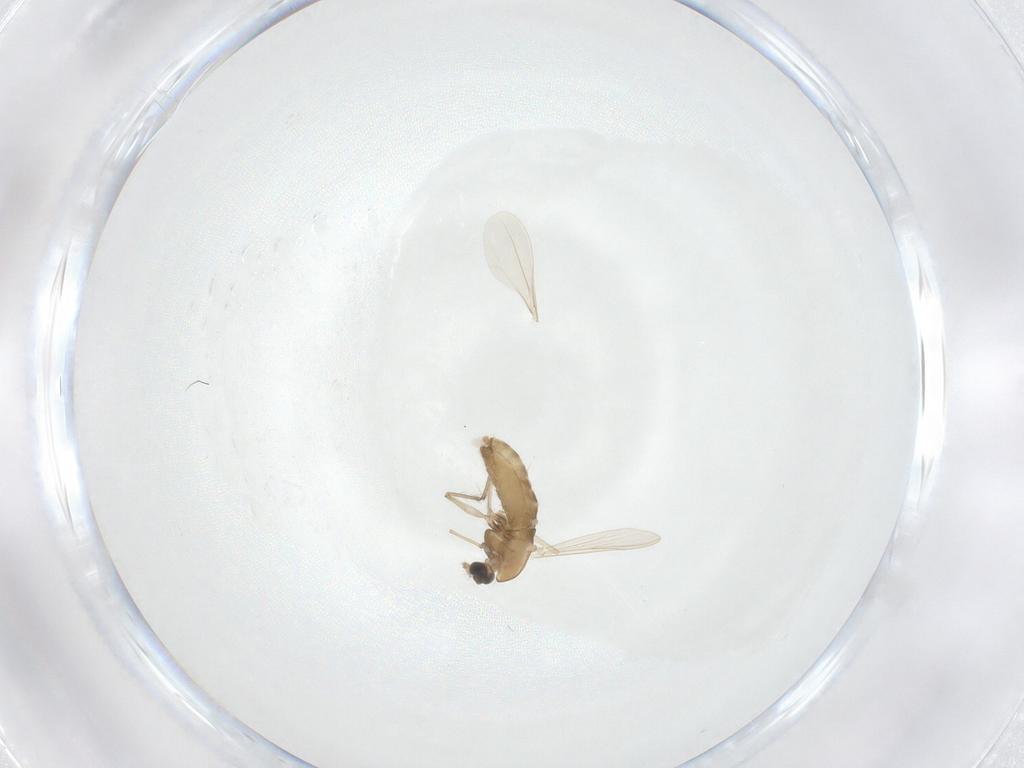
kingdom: Animalia
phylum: Arthropoda
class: Insecta
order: Diptera
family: Chironomidae
